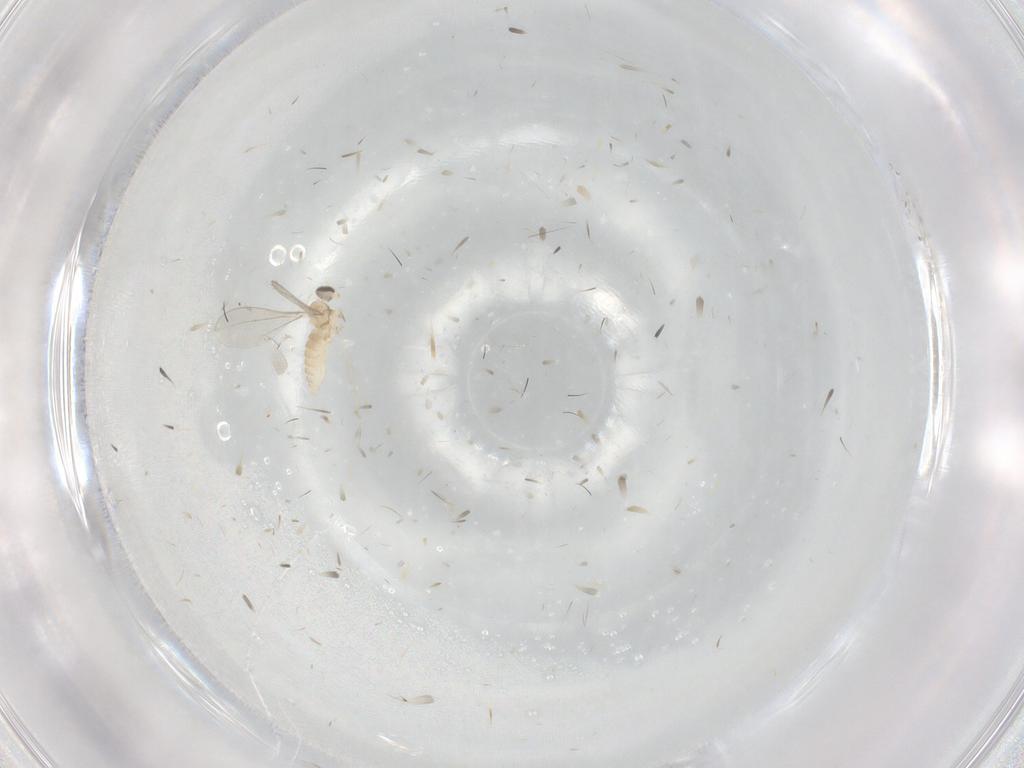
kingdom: Animalia
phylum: Arthropoda
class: Insecta
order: Diptera
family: Cecidomyiidae
